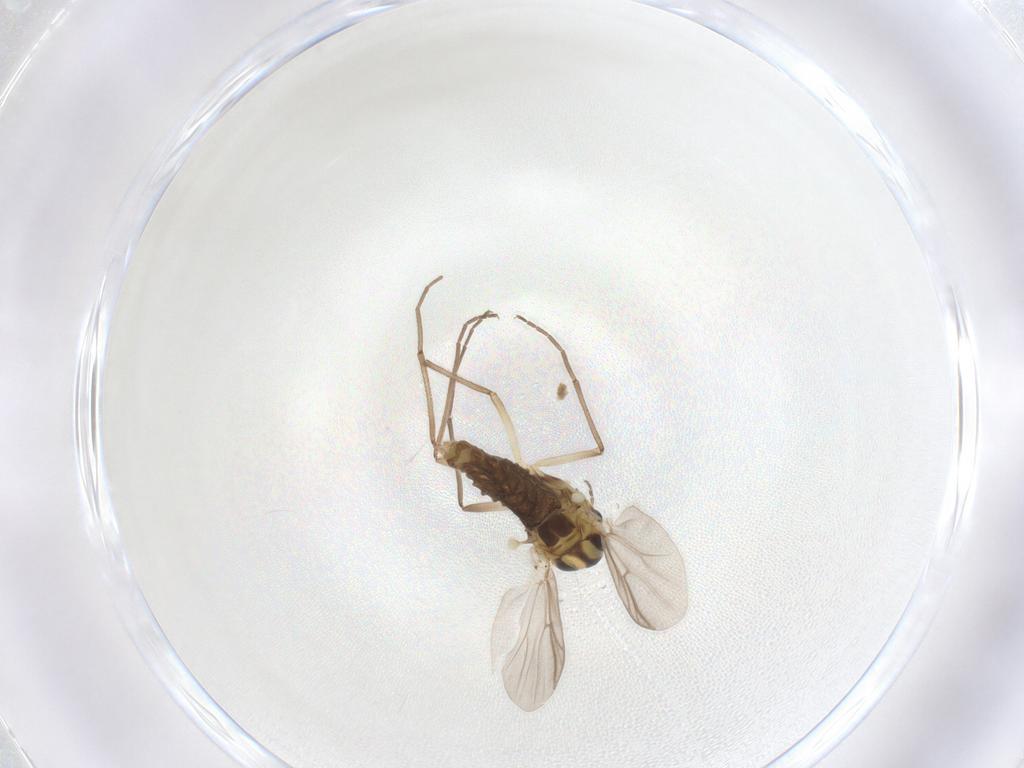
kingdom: Animalia
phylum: Arthropoda
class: Insecta
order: Diptera
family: Chironomidae
